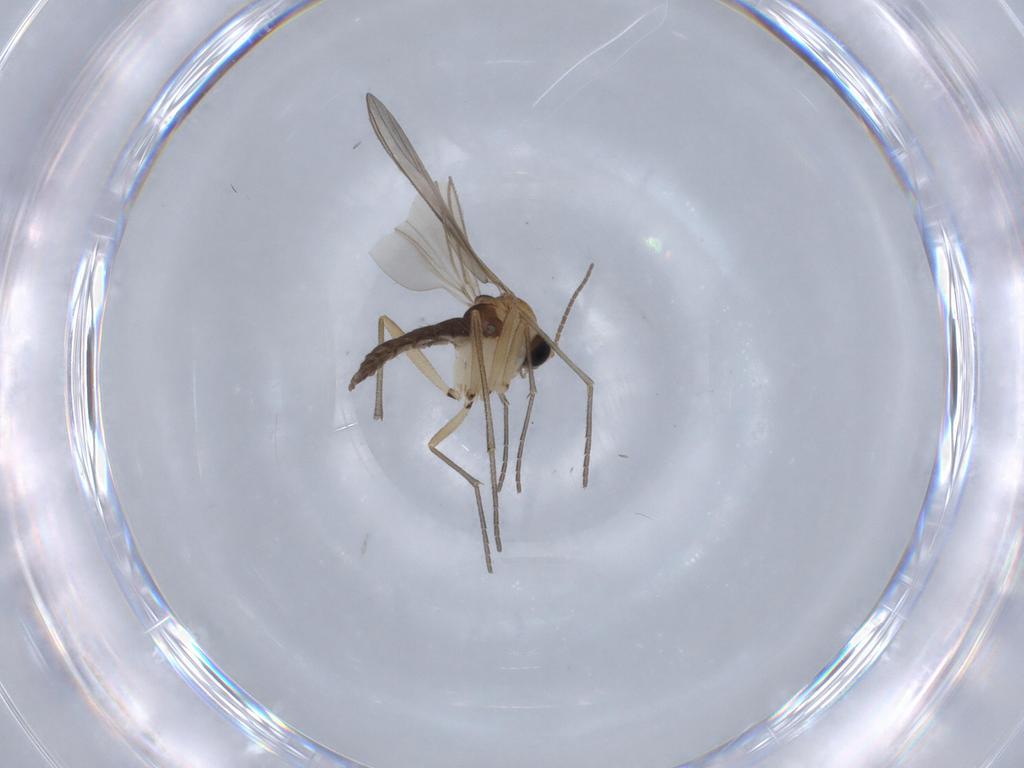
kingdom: Animalia
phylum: Arthropoda
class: Insecta
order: Diptera
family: Sciaridae
